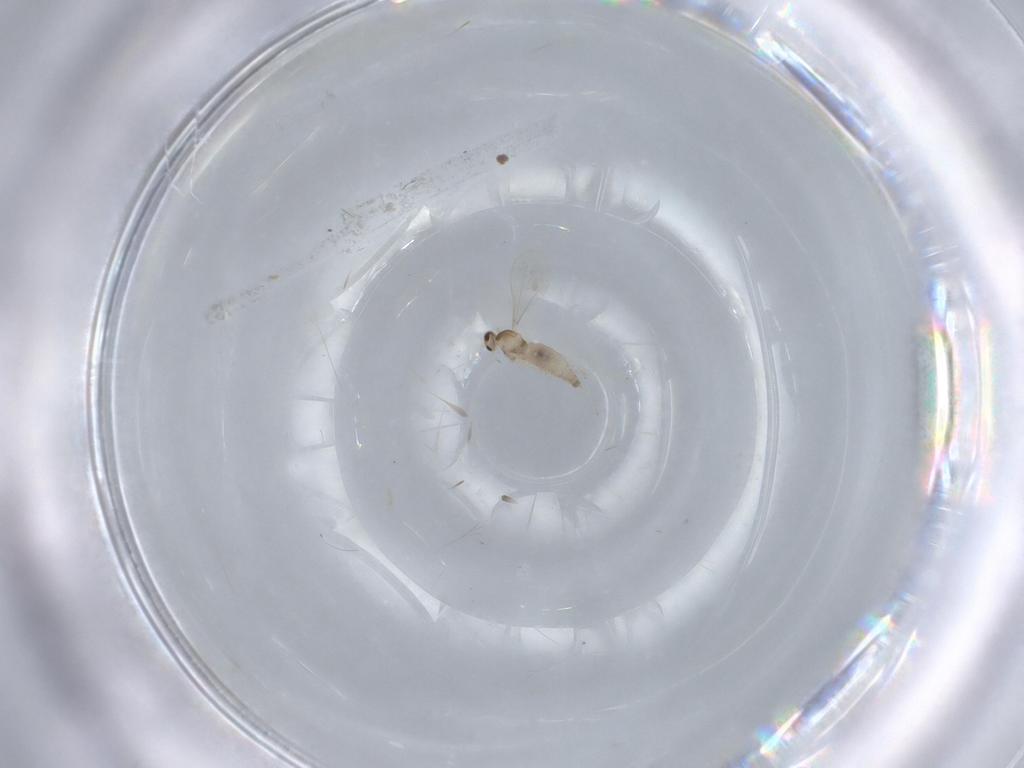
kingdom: Animalia
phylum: Arthropoda
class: Insecta
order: Diptera
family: Cecidomyiidae
